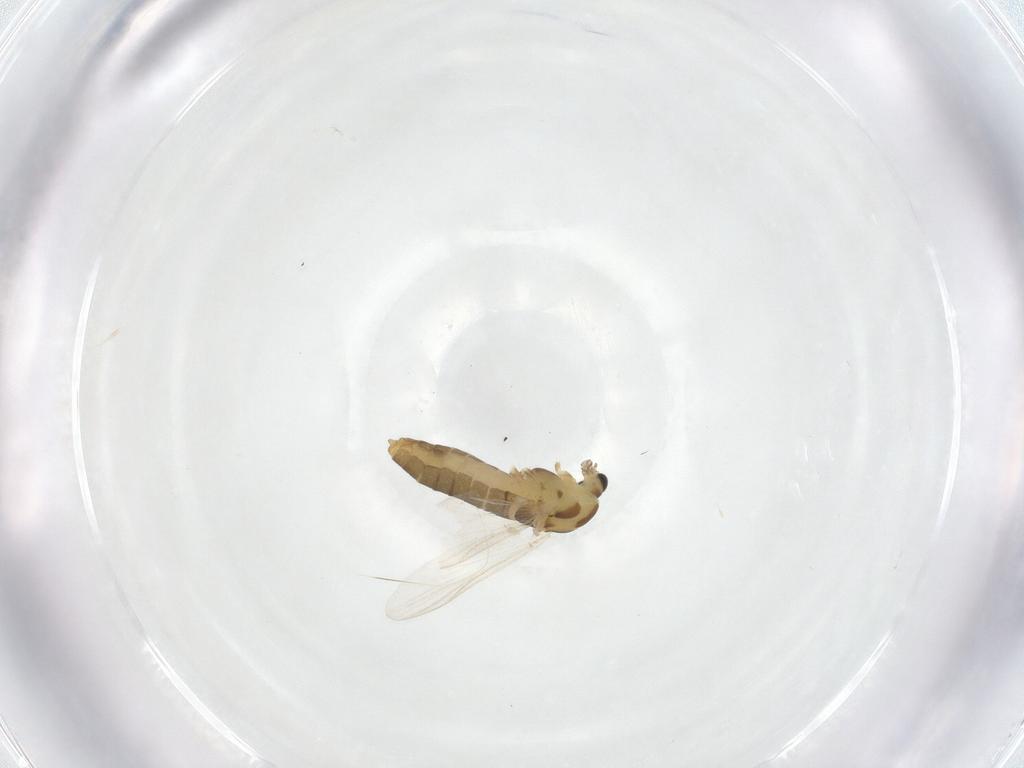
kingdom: Animalia
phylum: Arthropoda
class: Insecta
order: Diptera
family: Chironomidae
